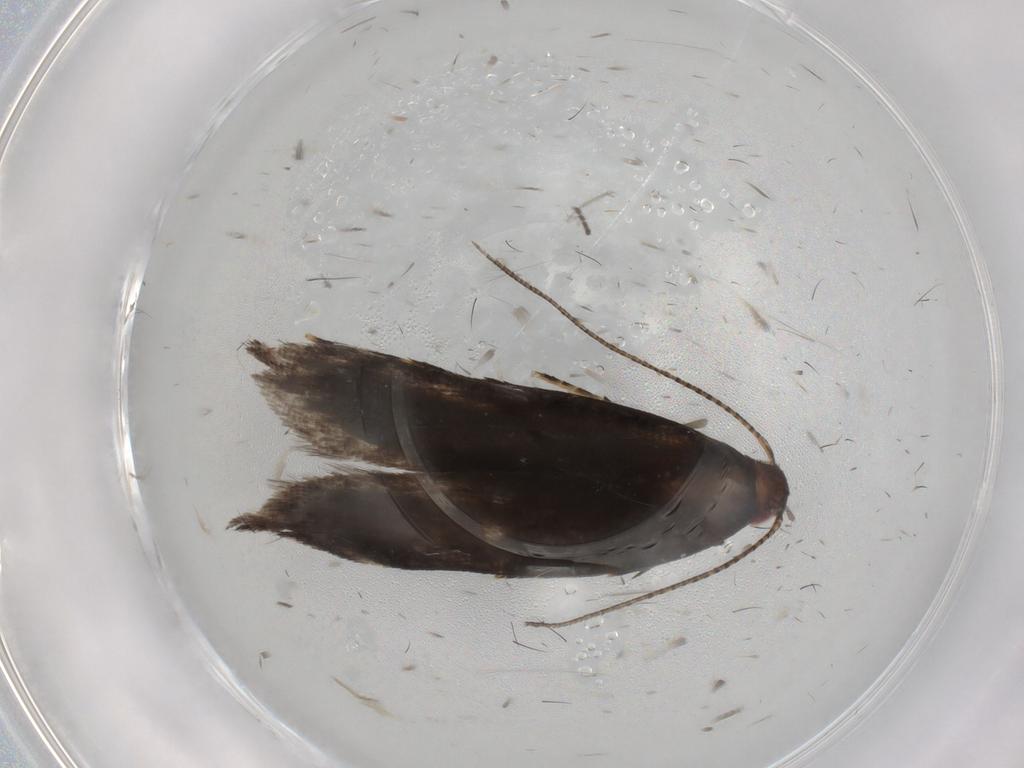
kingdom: Animalia
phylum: Arthropoda
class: Insecta
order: Lepidoptera
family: Gelechiidae
